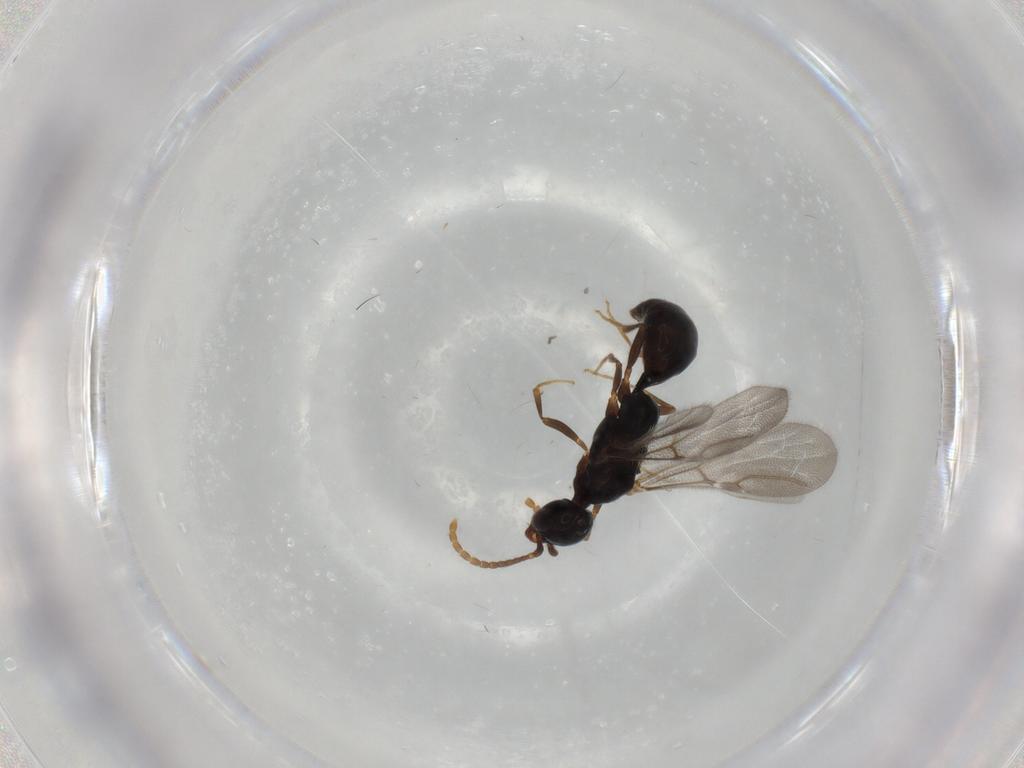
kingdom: Animalia
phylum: Arthropoda
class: Insecta
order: Hymenoptera
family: Bethylidae
